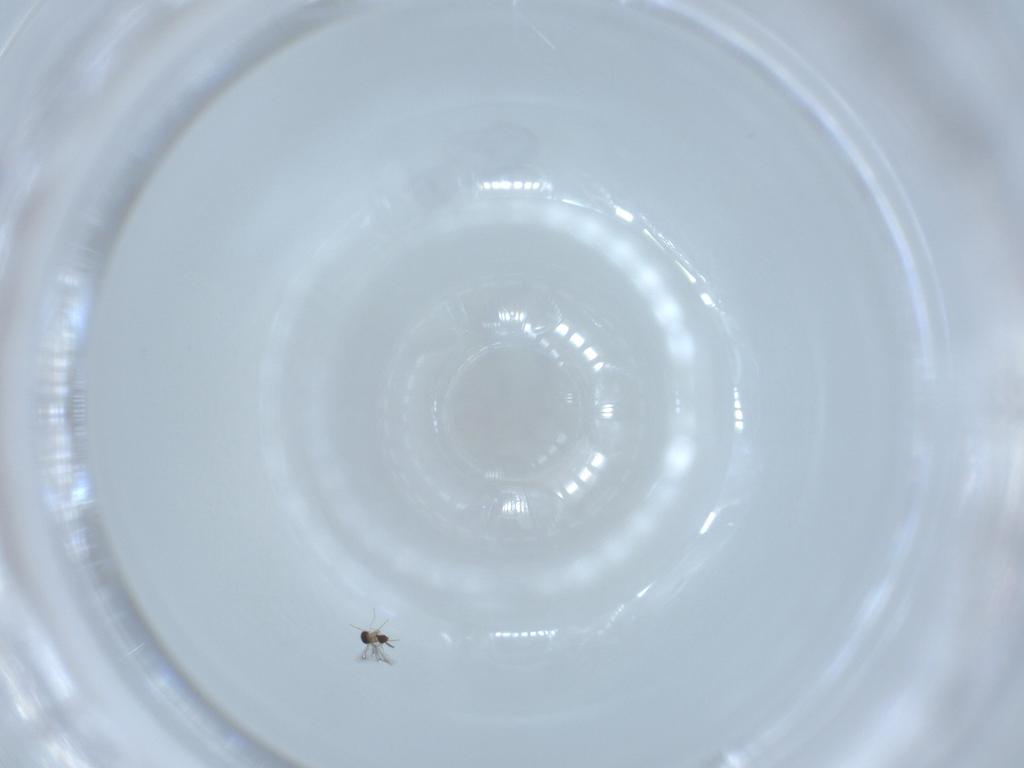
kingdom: Animalia
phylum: Arthropoda
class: Insecta
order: Hymenoptera
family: Mymaridae
